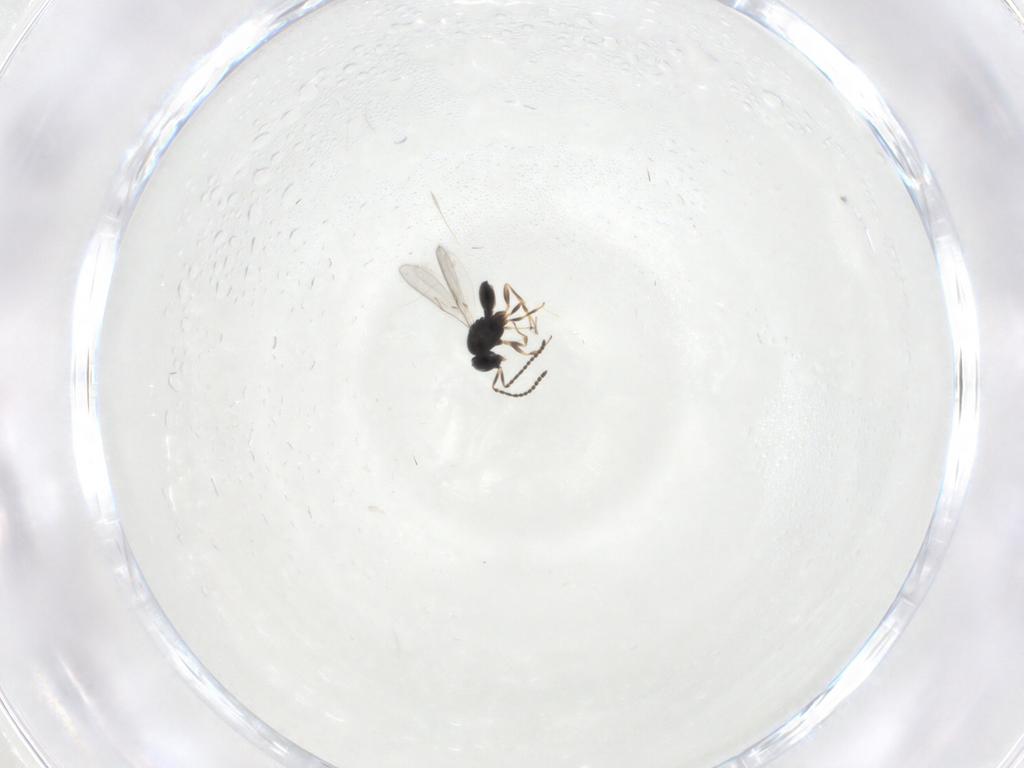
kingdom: Animalia
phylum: Arthropoda
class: Insecta
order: Hymenoptera
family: Scelionidae
